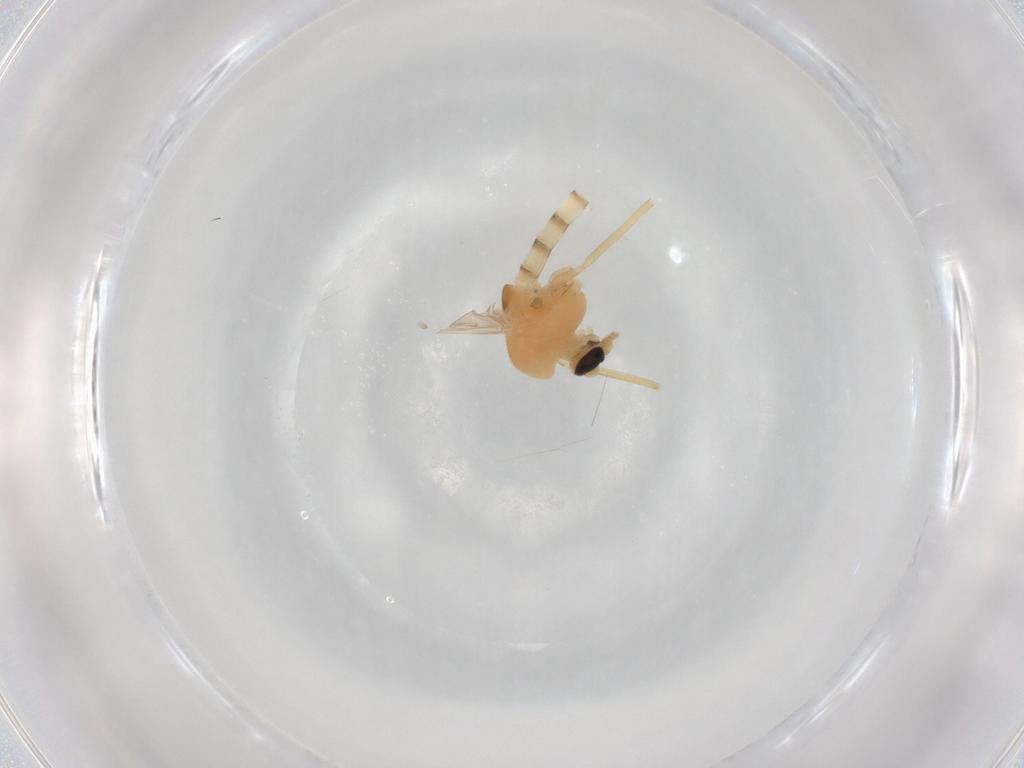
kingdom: Animalia
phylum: Arthropoda
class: Insecta
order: Diptera
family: Chironomidae
